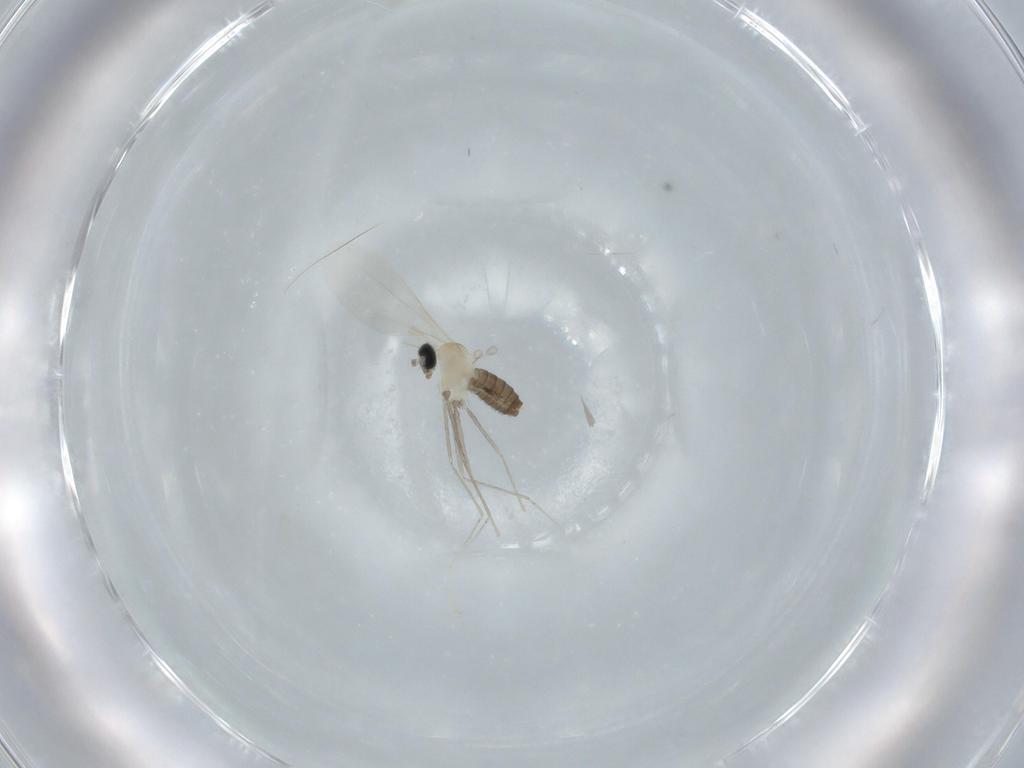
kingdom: Animalia
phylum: Arthropoda
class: Insecta
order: Diptera
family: Cecidomyiidae
